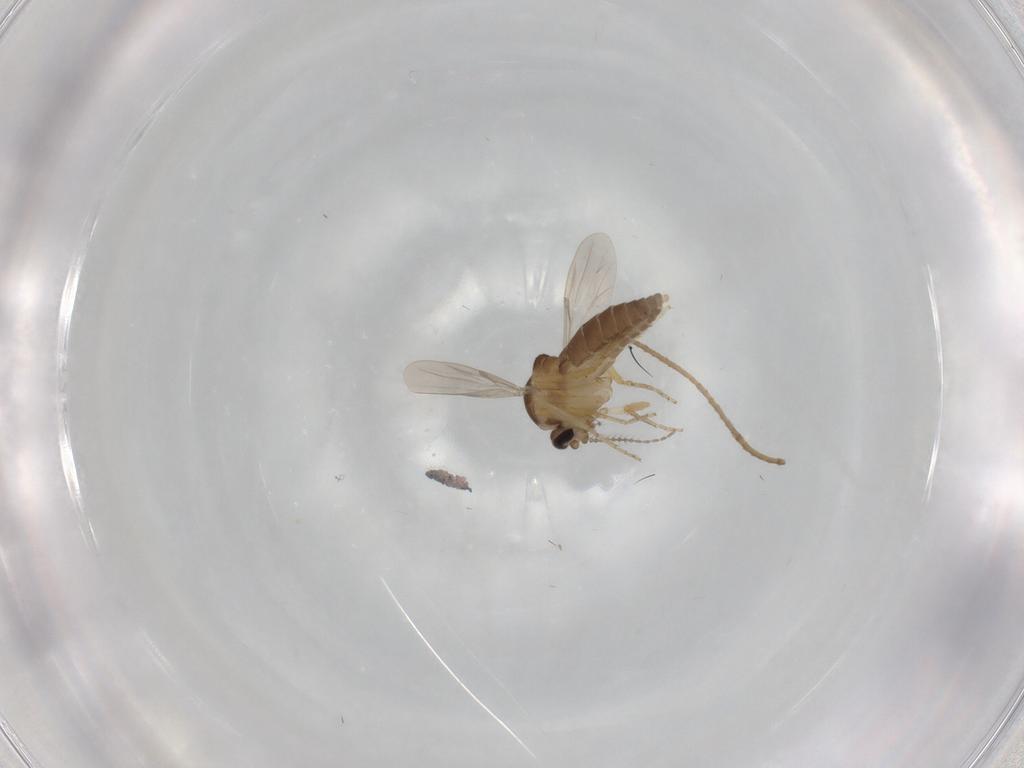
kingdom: Animalia
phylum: Arthropoda
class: Insecta
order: Diptera
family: Ceratopogonidae
